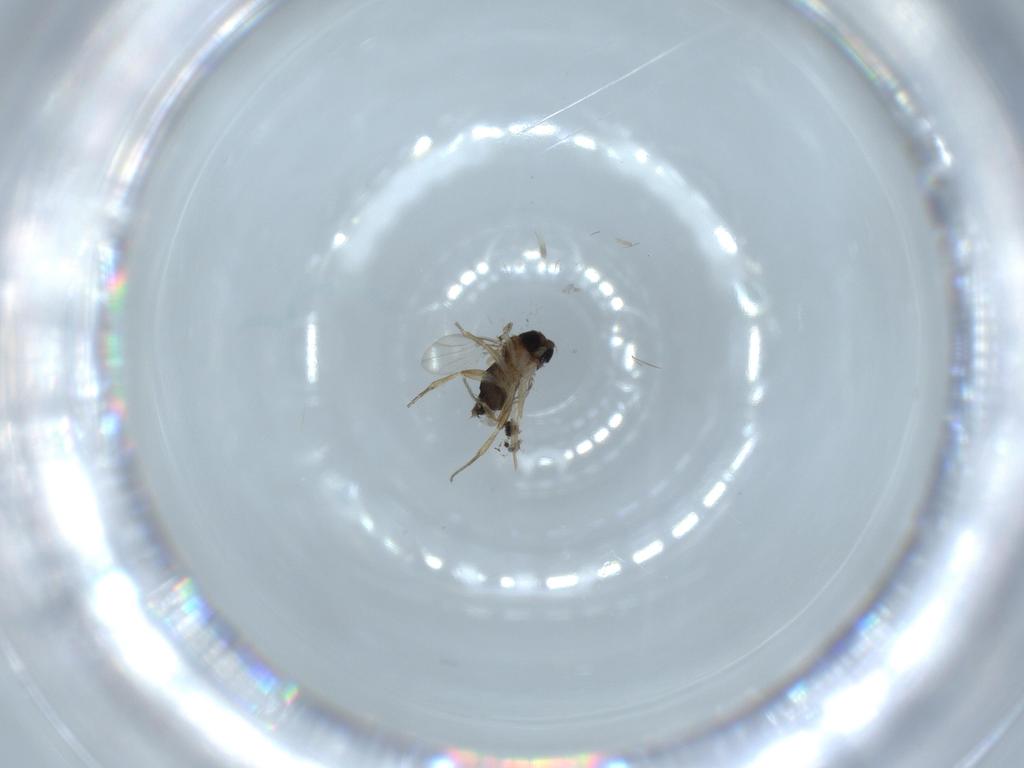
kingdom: Animalia
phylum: Arthropoda
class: Insecta
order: Diptera
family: Phoridae
